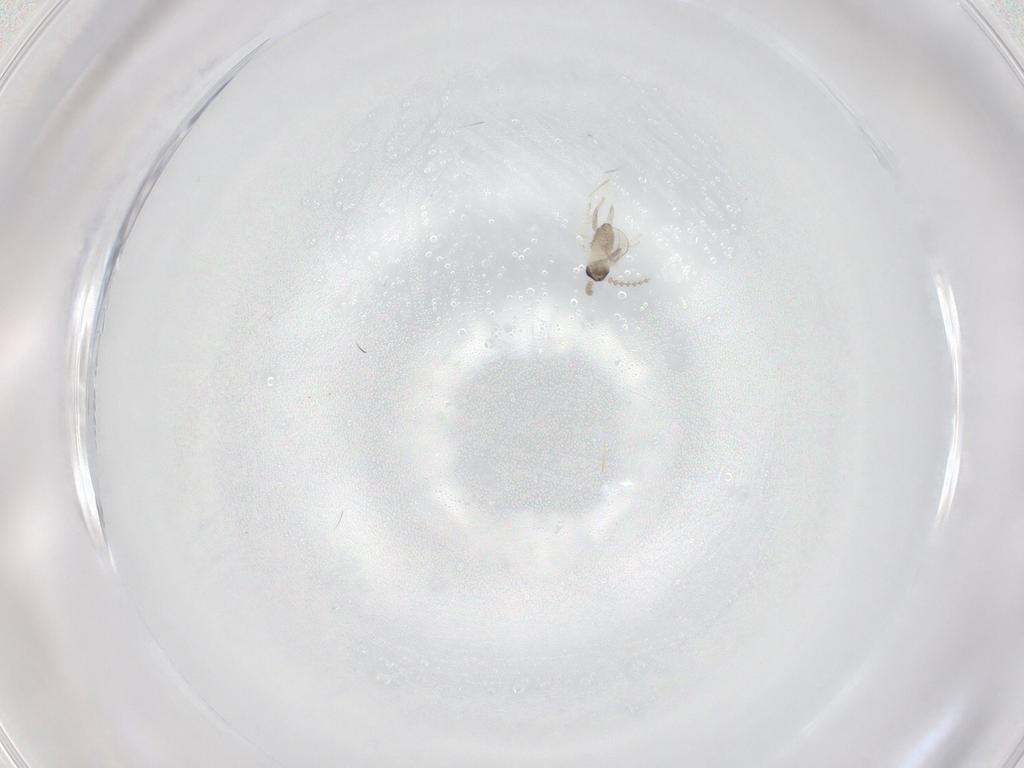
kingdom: Animalia
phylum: Arthropoda
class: Insecta
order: Diptera
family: Cecidomyiidae
